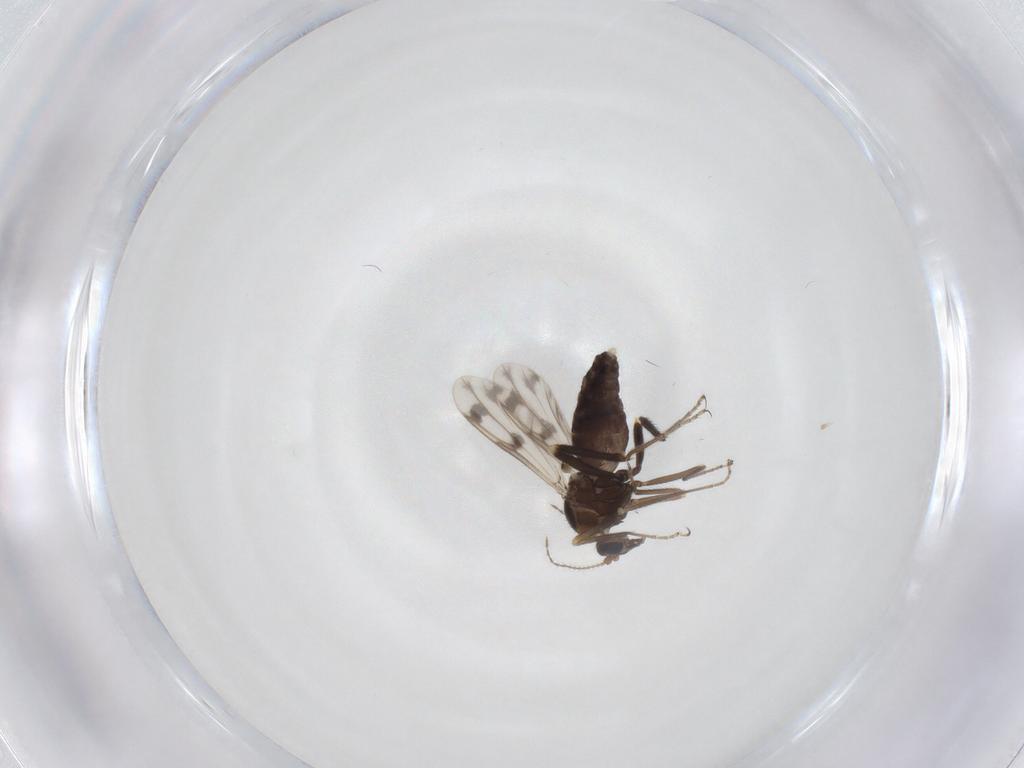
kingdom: Animalia
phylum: Arthropoda
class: Insecta
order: Diptera
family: Ceratopogonidae
